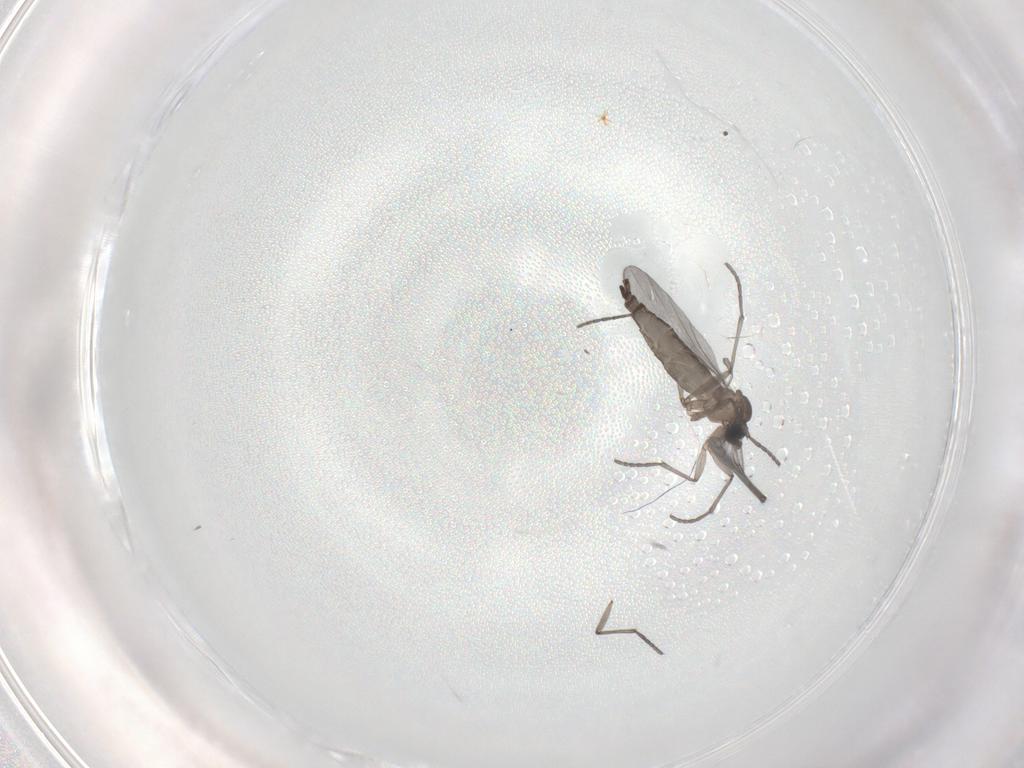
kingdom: Animalia
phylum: Arthropoda
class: Insecta
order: Diptera
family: Sciaridae
